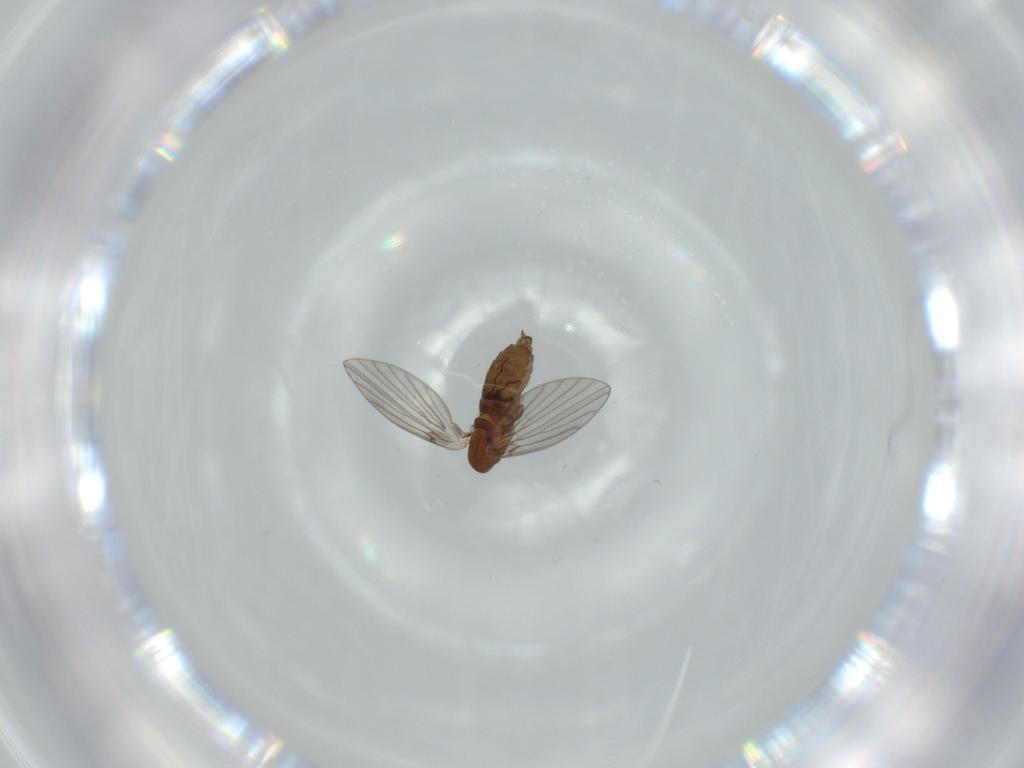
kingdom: Animalia
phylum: Arthropoda
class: Insecta
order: Diptera
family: Psychodidae
